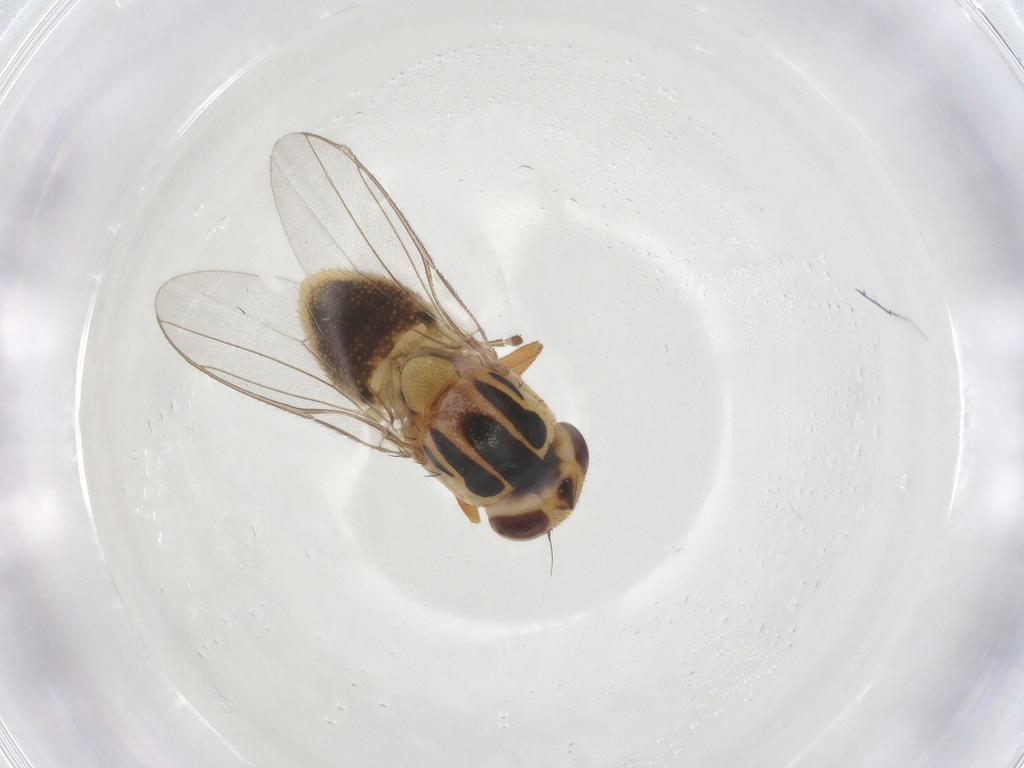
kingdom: Animalia
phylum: Arthropoda
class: Insecta
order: Diptera
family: Chloropidae
